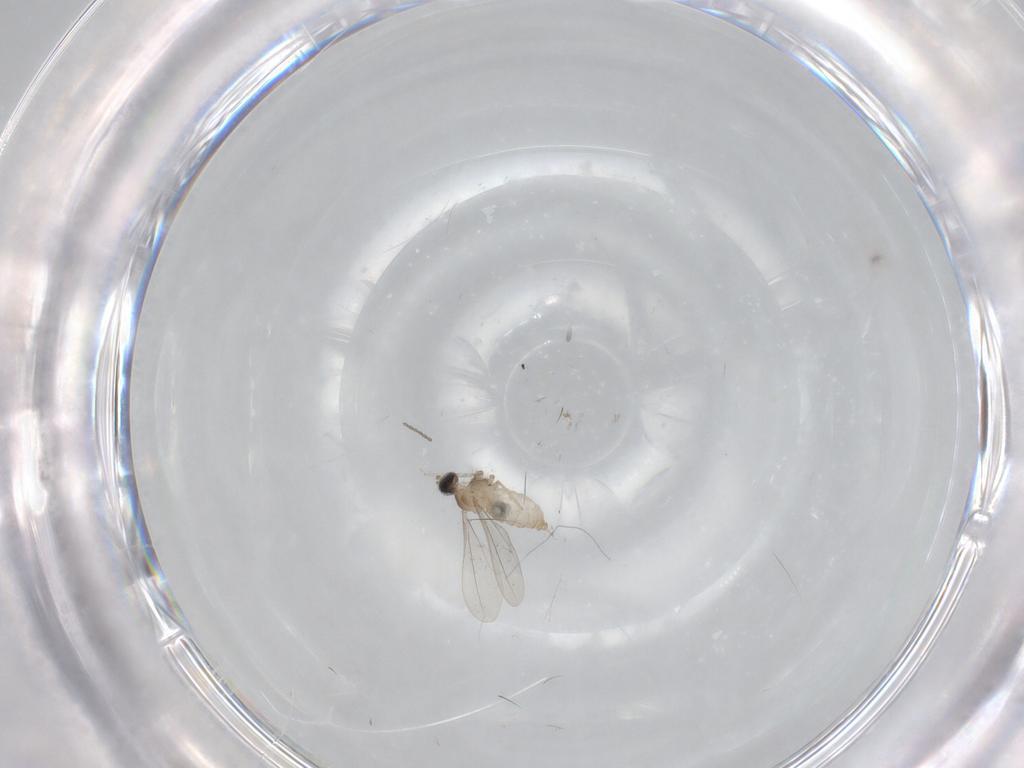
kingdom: Animalia
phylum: Arthropoda
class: Insecta
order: Diptera
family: Cecidomyiidae
